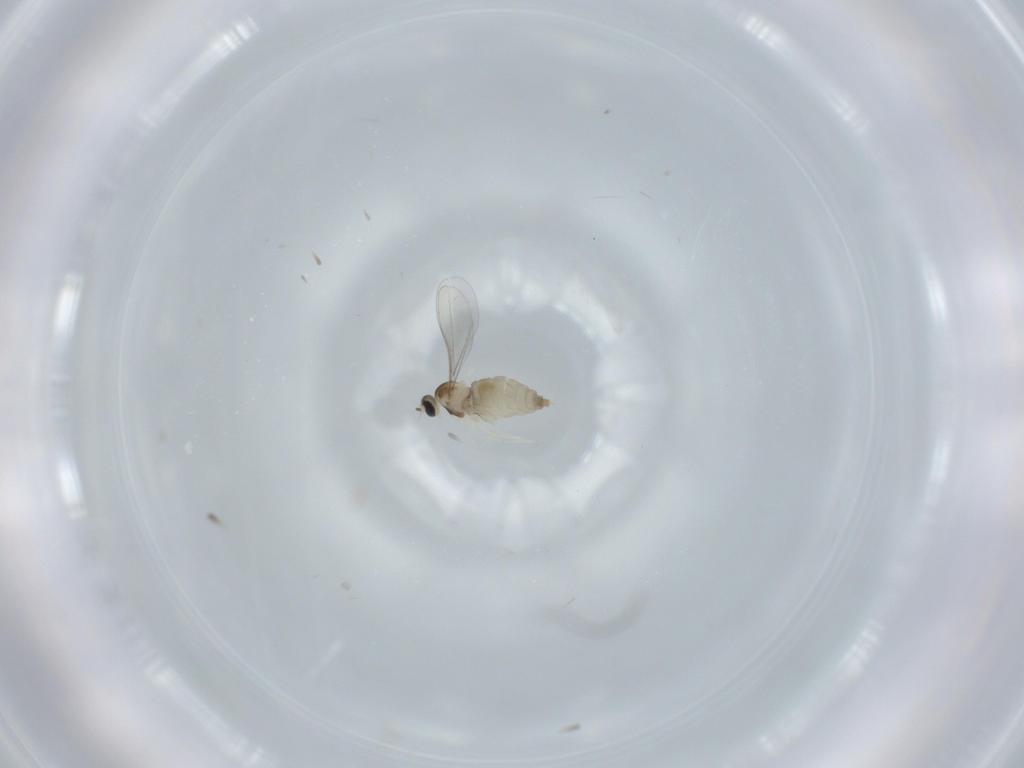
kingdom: Animalia
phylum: Arthropoda
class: Insecta
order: Diptera
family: Cecidomyiidae
